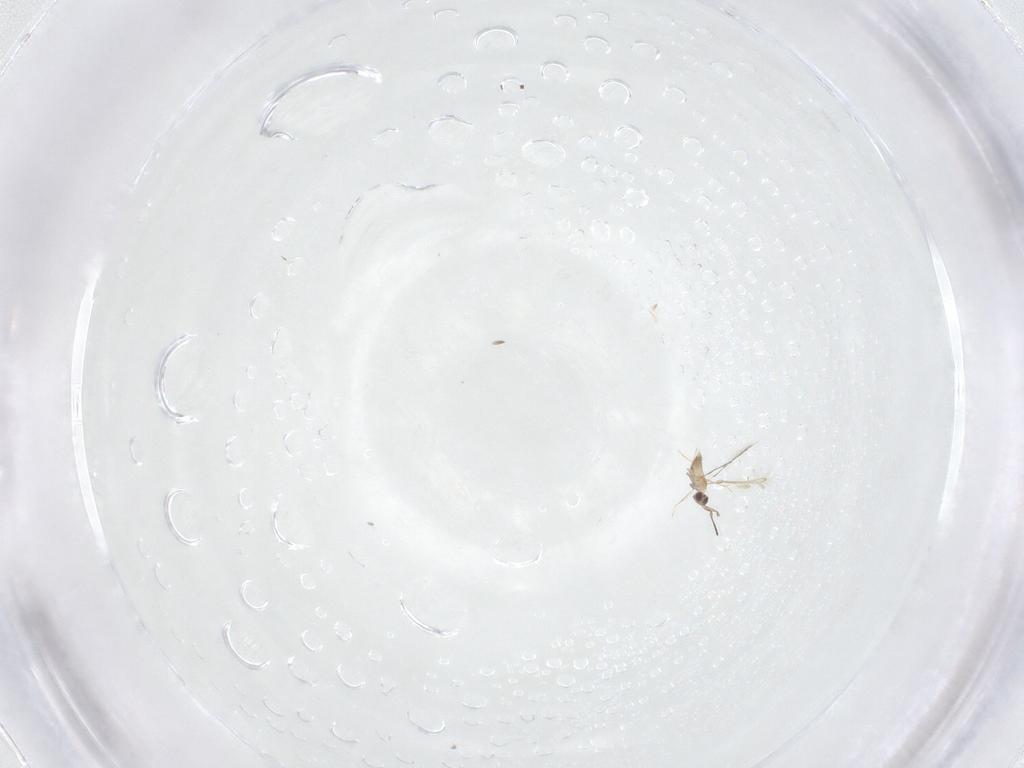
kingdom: Animalia
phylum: Arthropoda
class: Insecta
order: Hymenoptera
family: Mymaridae
